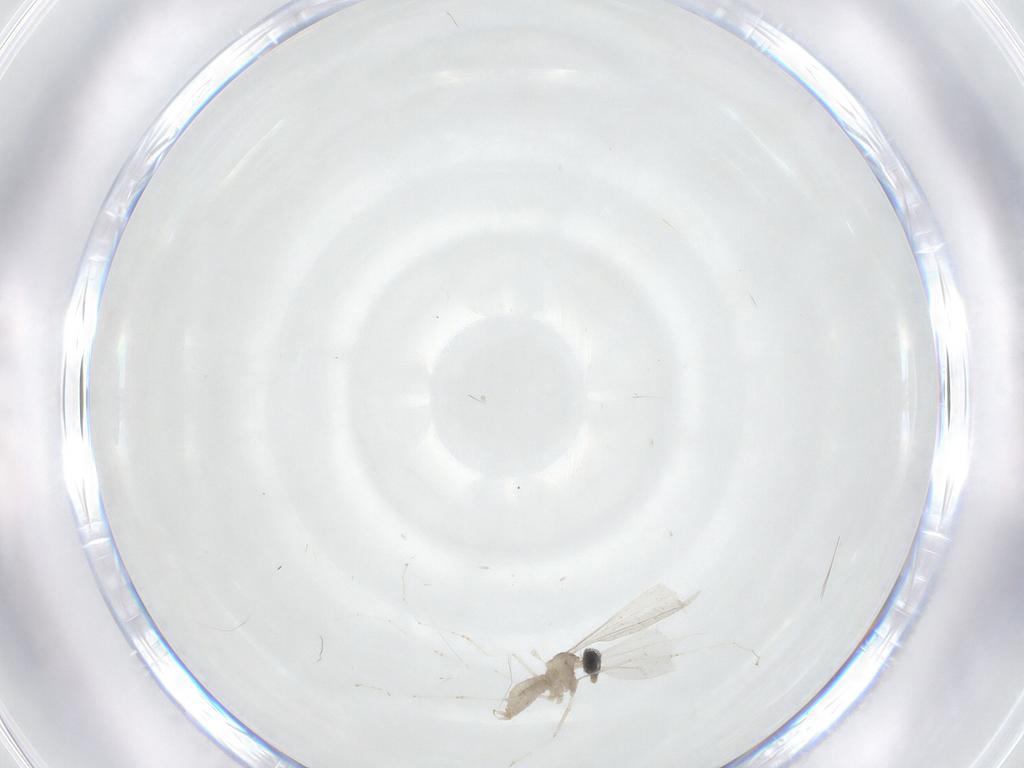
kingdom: Animalia
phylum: Arthropoda
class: Insecta
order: Diptera
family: Cecidomyiidae
